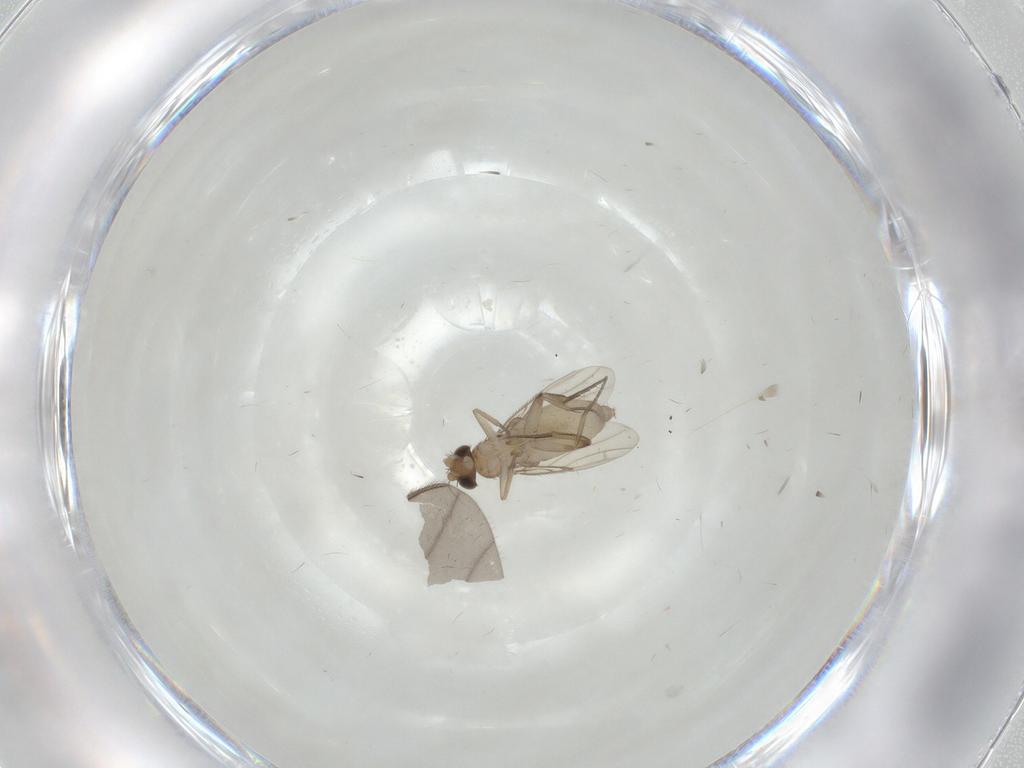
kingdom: Animalia
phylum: Arthropoda
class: Insecta
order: Diptera
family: Phoridae
